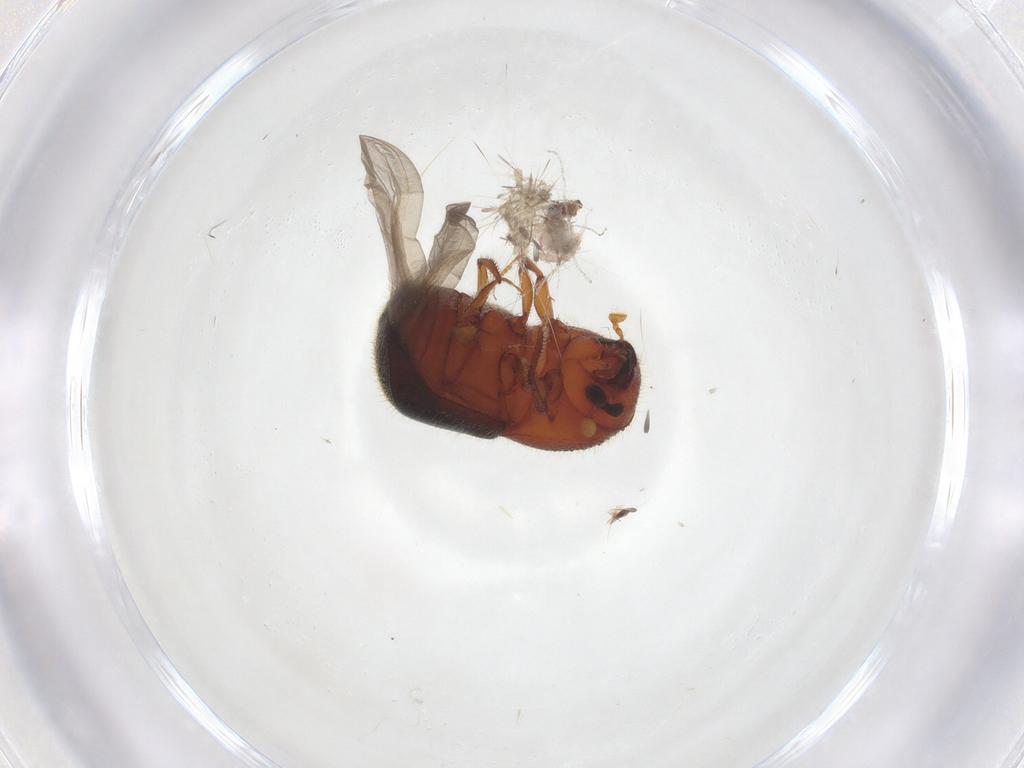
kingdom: Animalia
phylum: Arthropoda
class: Insecta
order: Coleoptera
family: Curculionidae
